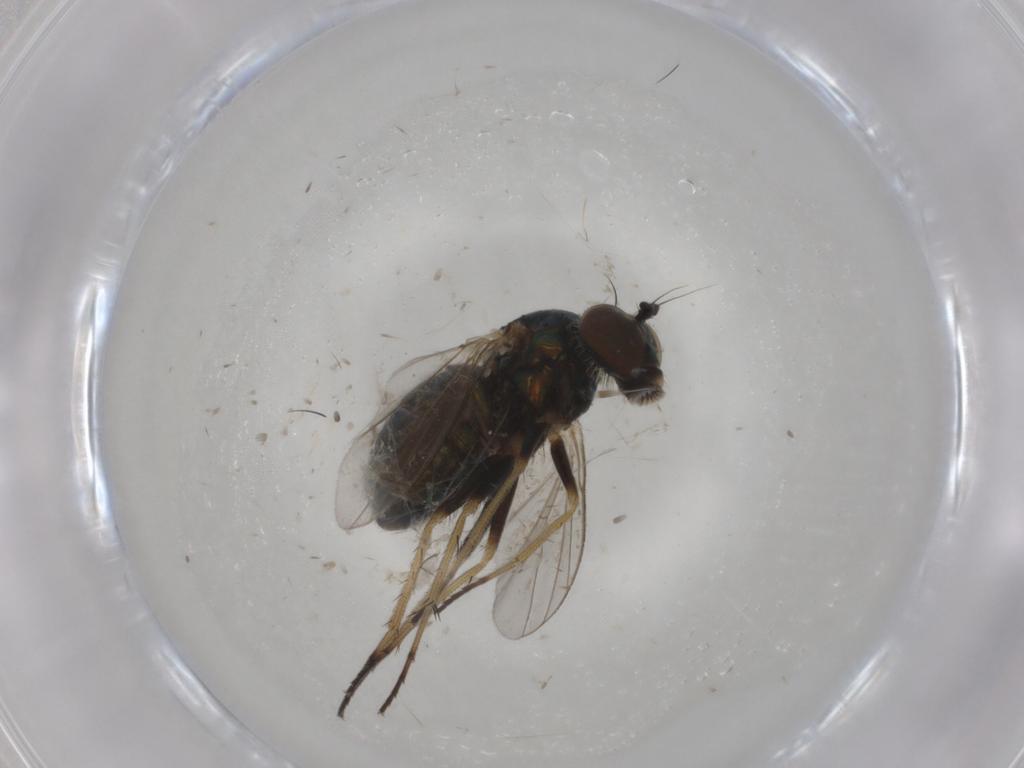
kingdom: Animalia
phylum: Arthropoda
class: Insecta
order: Diptera
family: Dolichopodidae
